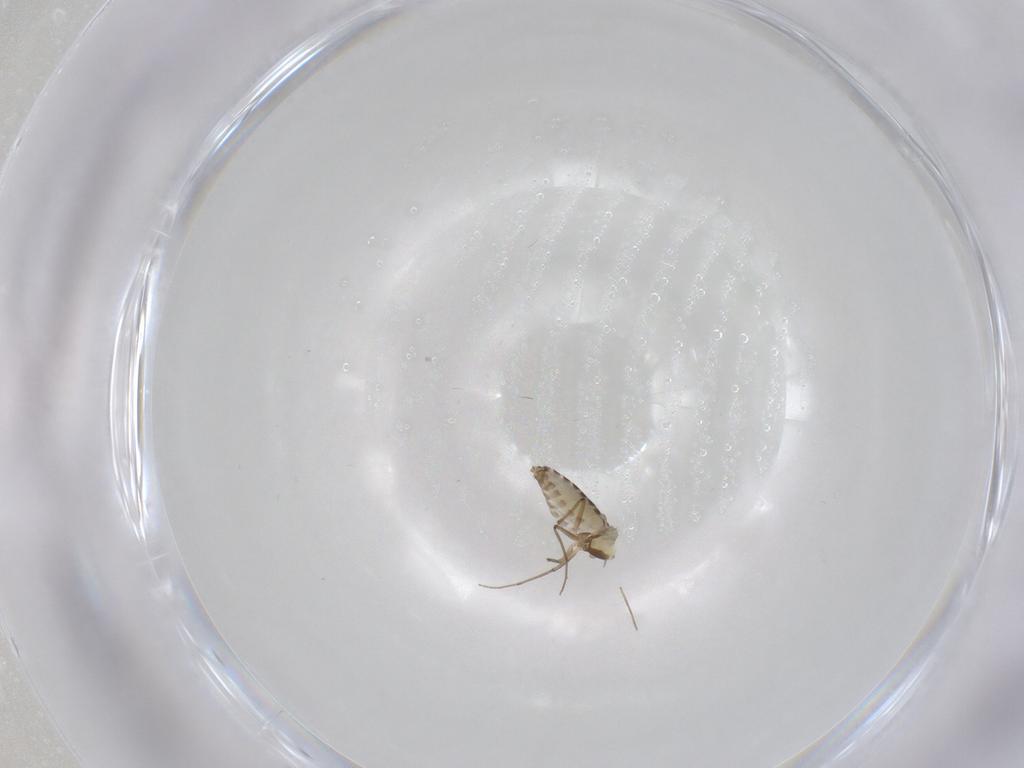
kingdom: Animalia
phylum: Arthropoda
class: Insecta
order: Diptera
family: Chironomidae
